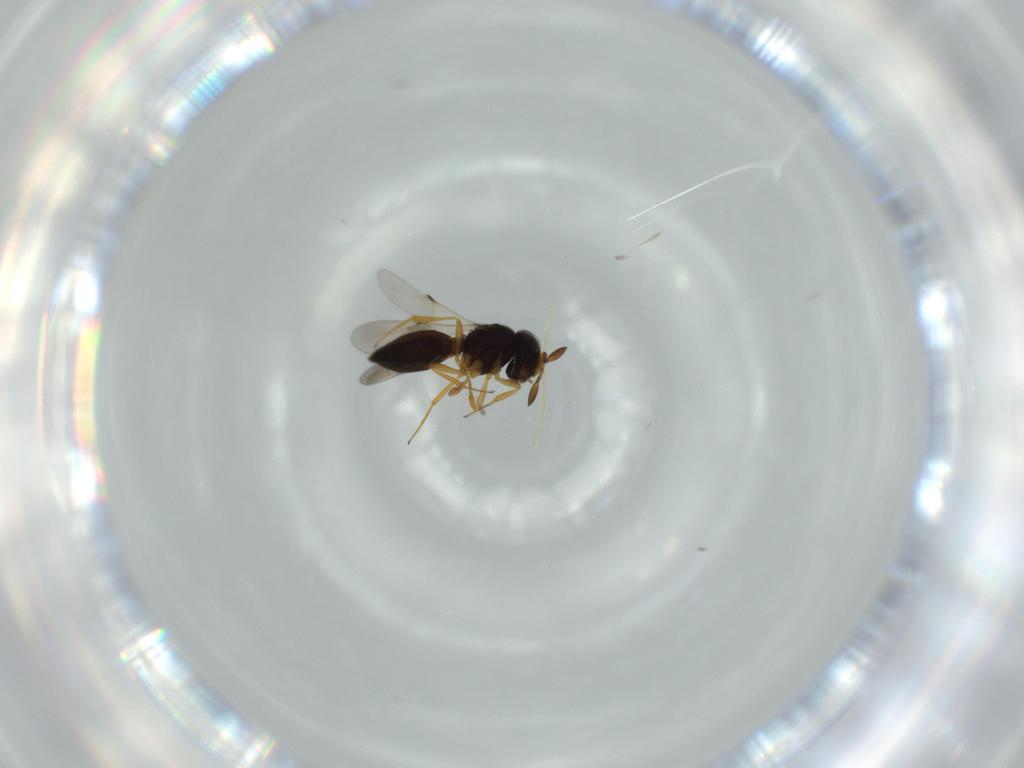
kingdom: Animalia
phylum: Arthropoda
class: Insecta
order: Hymenoptera
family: Scelionidae
